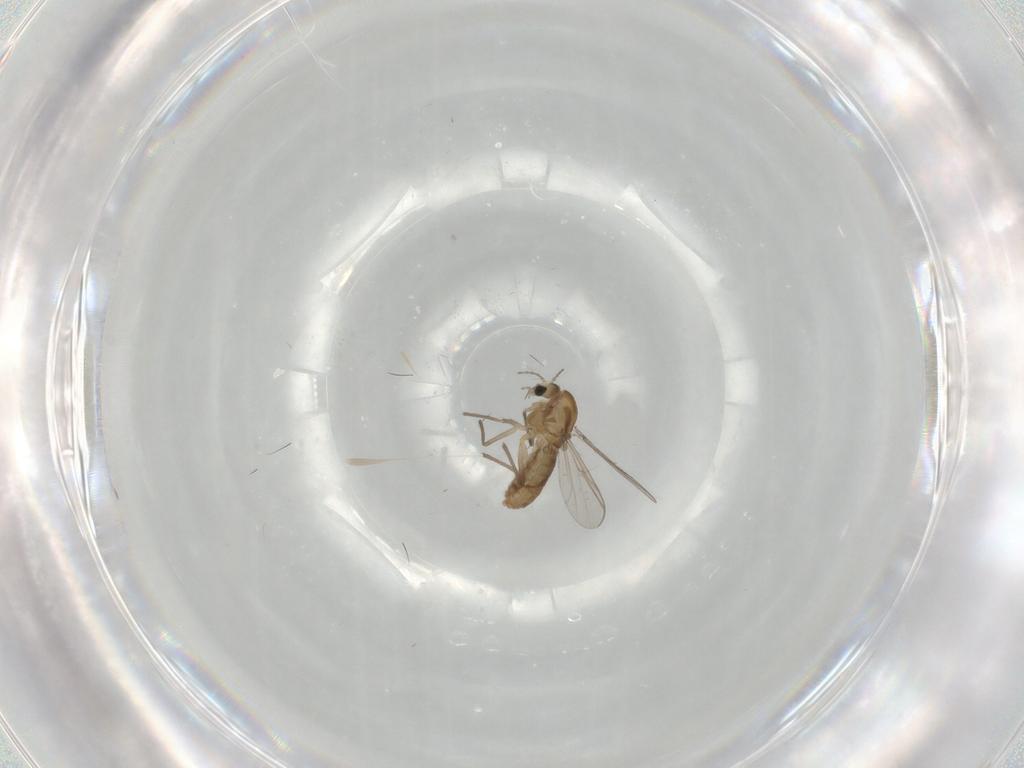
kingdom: Animalia
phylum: Arthropoda
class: Insecta
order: Diptera
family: Chironomidae
